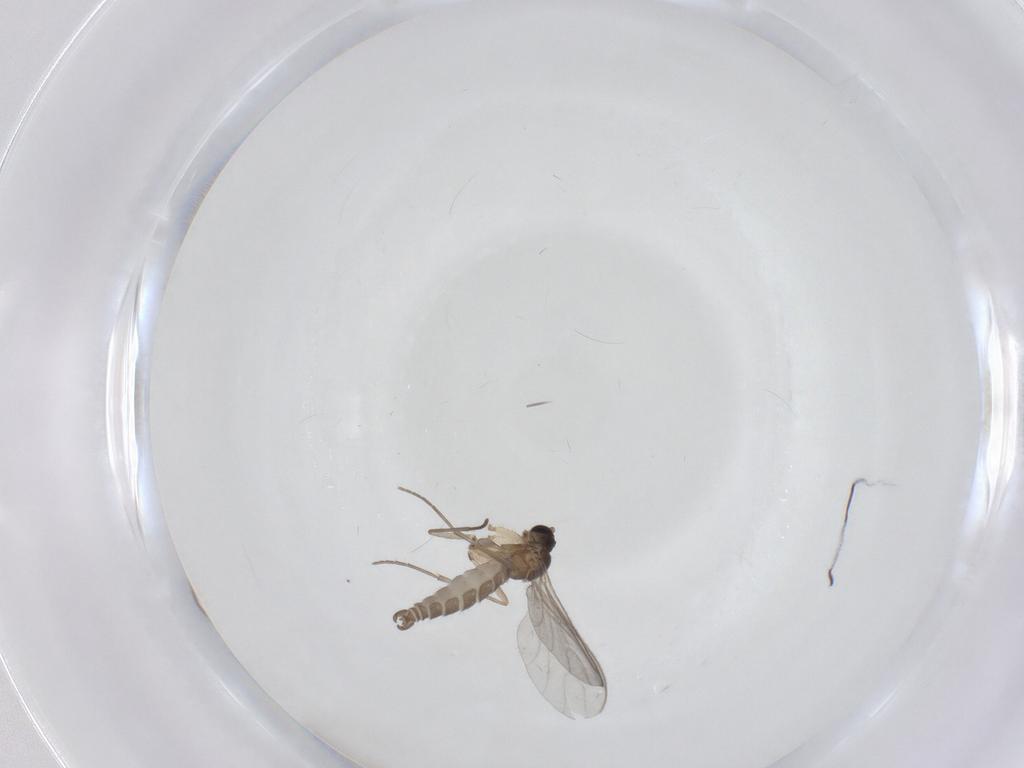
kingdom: Animalia
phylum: Arthropoda
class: Insecta
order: Diptera
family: Sciaridae
